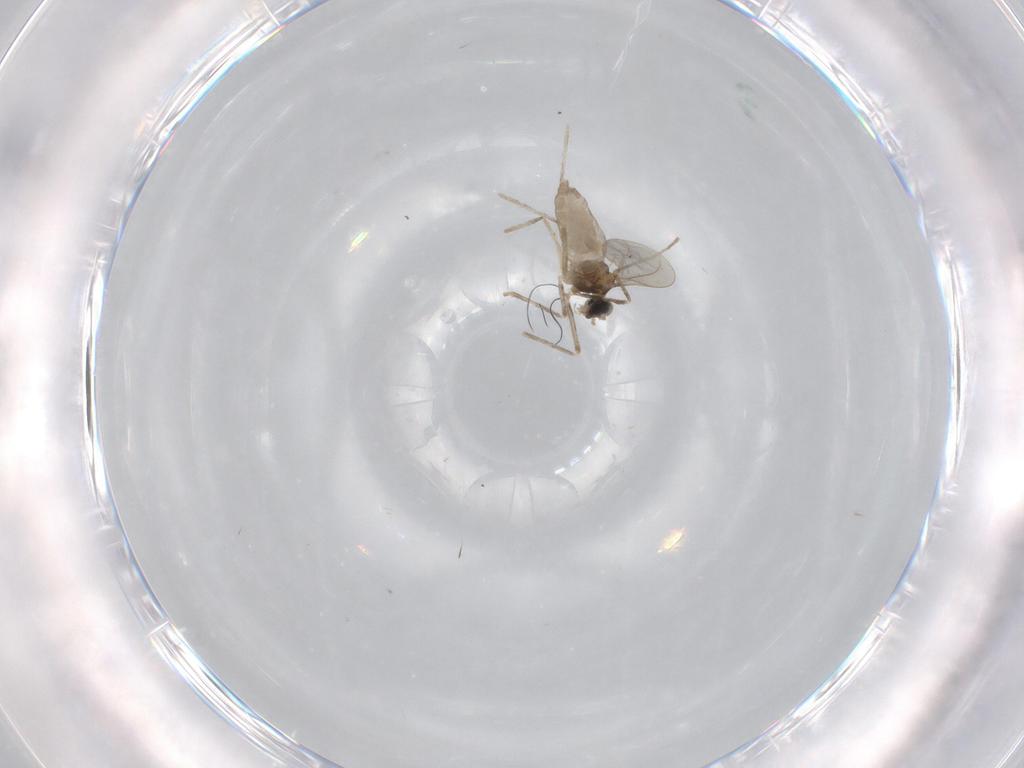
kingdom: Animalia
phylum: Arthropoda
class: Insecta
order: Diptera
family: Cecidomyiidae
